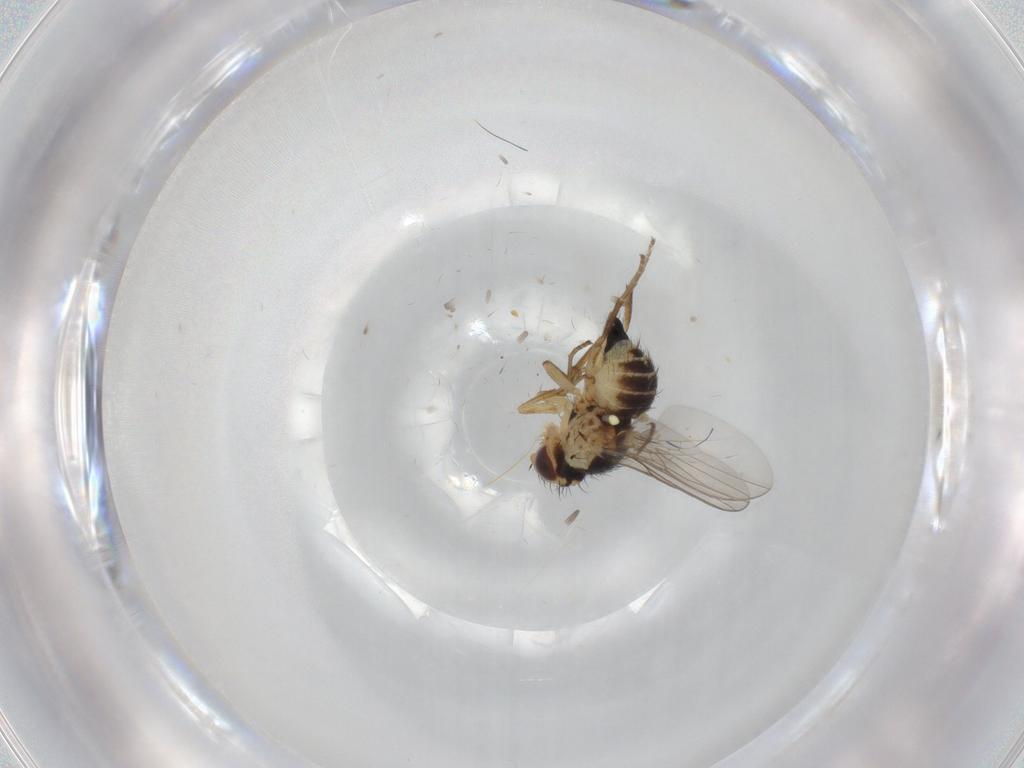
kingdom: Animalia
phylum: Arthropoda
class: Insecta
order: Diptera
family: Agromyzidae
